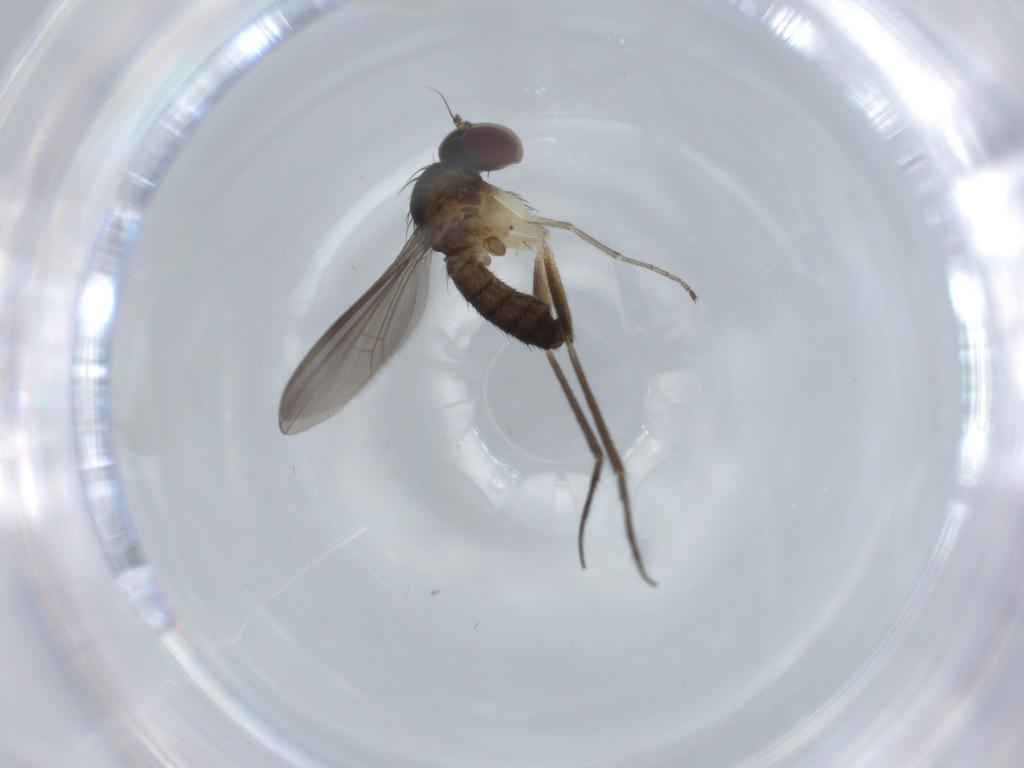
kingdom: Animalia
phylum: Arthropoda
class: Insecta
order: Diptera
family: Dolichopodidae
